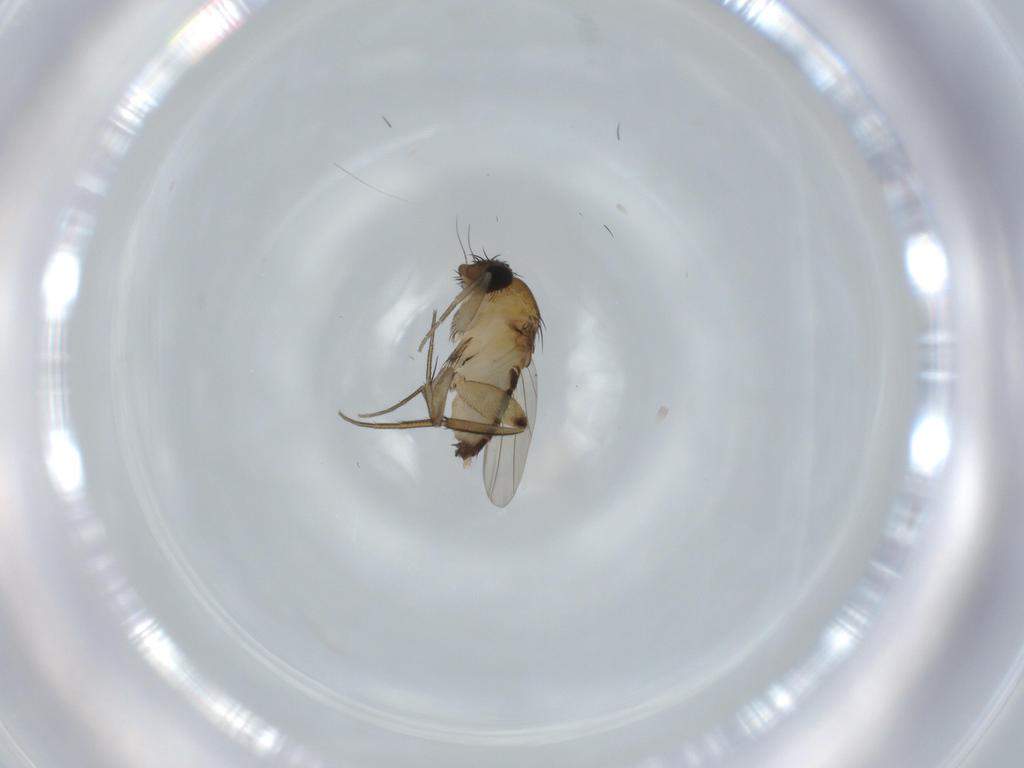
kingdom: Animalia
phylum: Arthropoda
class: Insecta
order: Diptera
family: Phoridae
